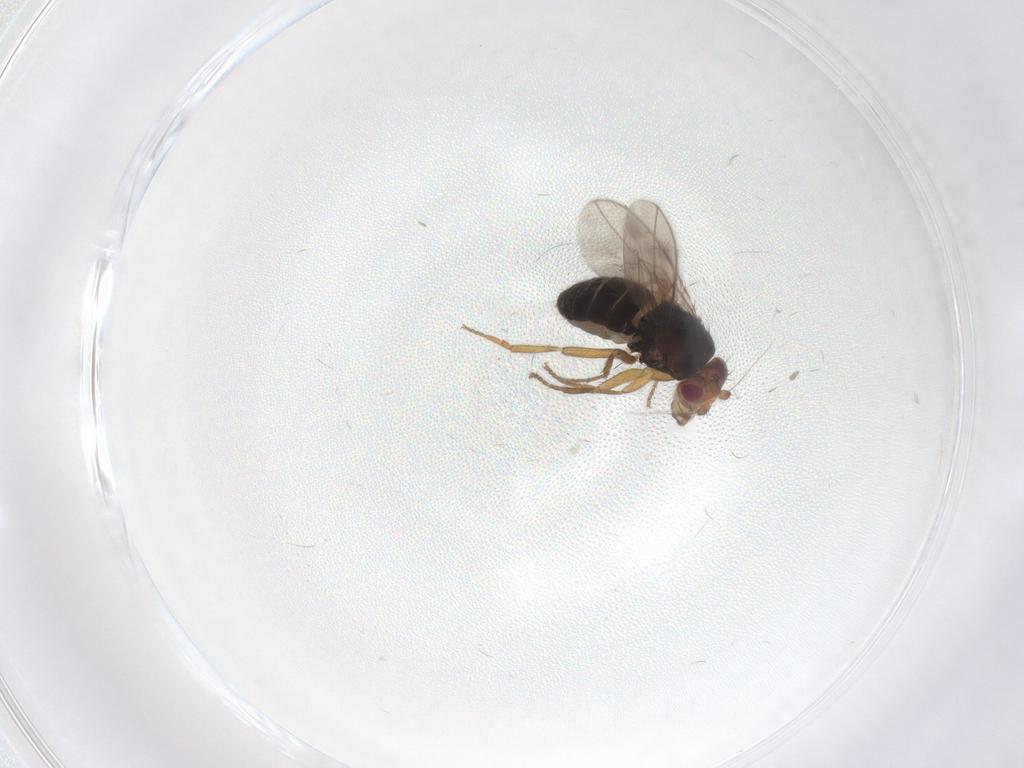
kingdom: Animalia
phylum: Arthropoda
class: Insecta
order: Diptera
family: Sphaeroceridae
